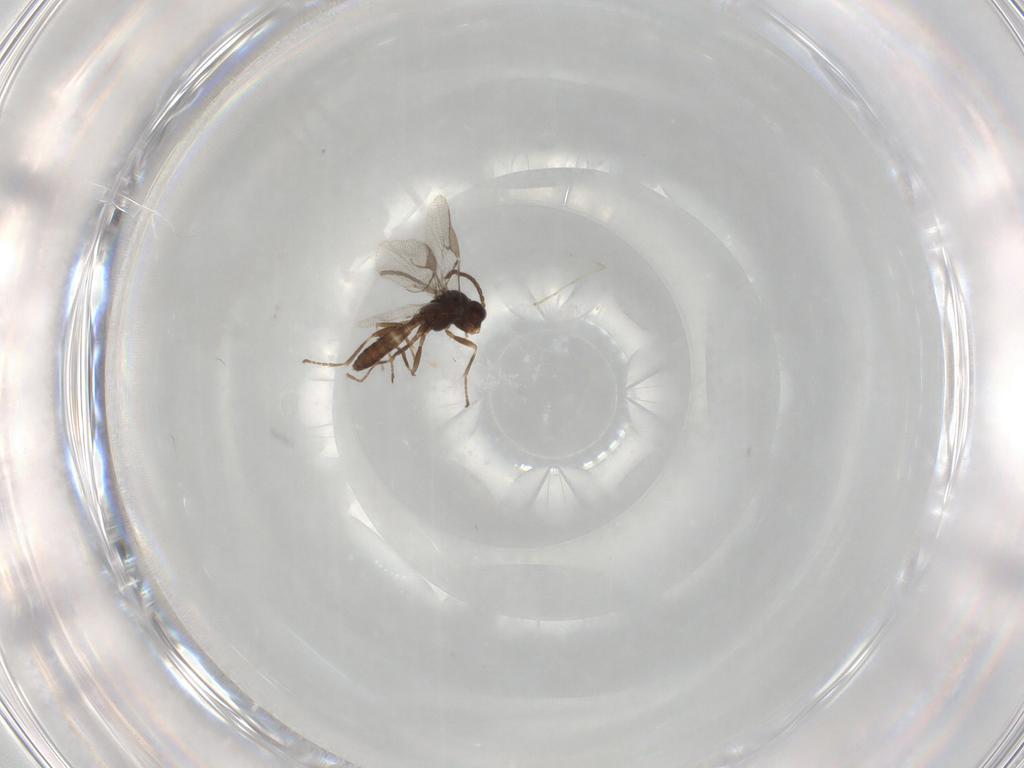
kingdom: Animalia
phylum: Arthropoda
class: Insecta
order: Hymenoptera
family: Braconidae
